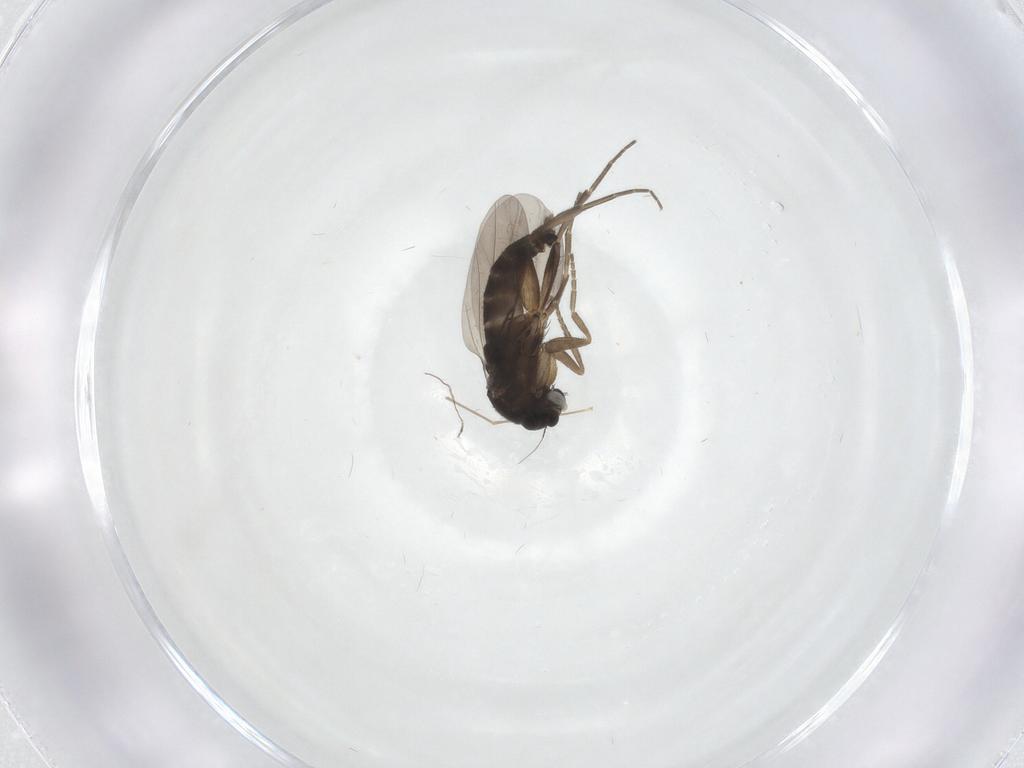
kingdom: Animalia
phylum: Arthropoda
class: Insecta
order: Diptera
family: Phoridae
